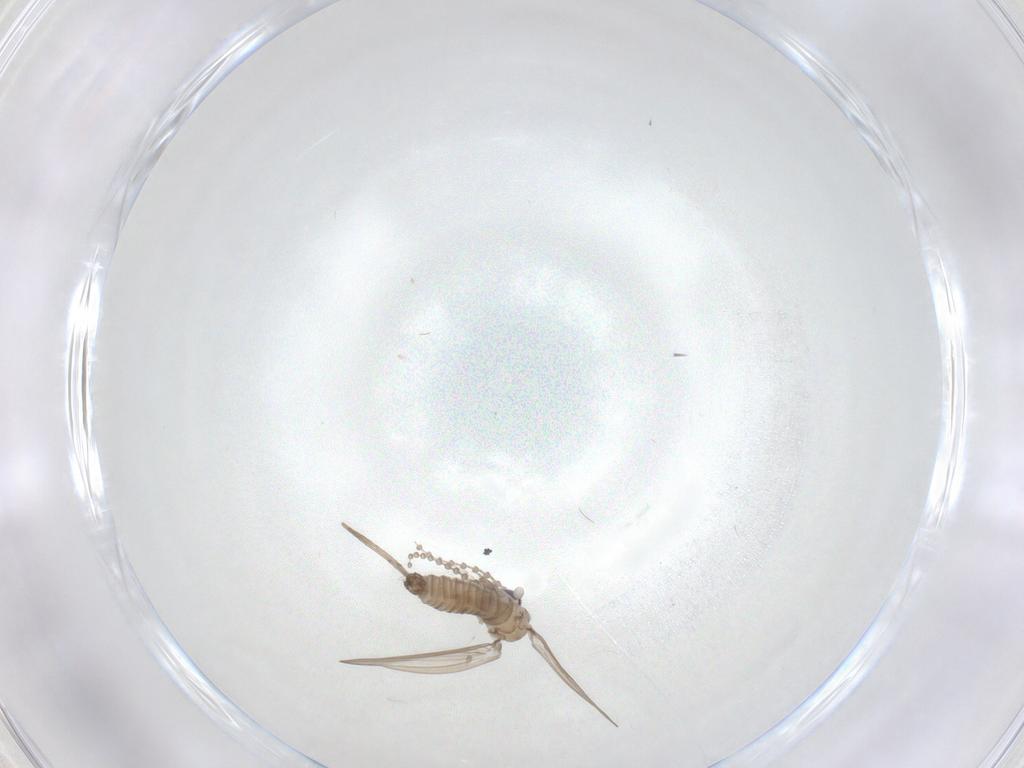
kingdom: Animalia
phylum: Arthropoda
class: Insecta
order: Diptera
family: Psychodidae
